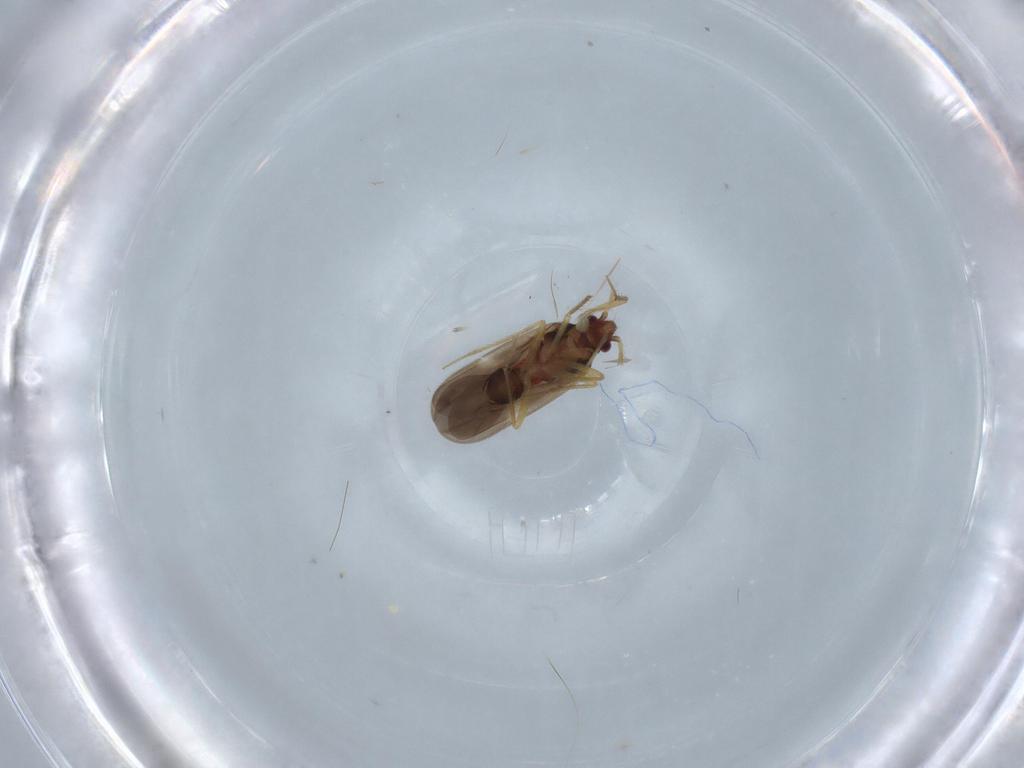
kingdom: Animalia
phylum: Arthropoda
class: Insecta
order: Hemiptera
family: Ceratocombidae
